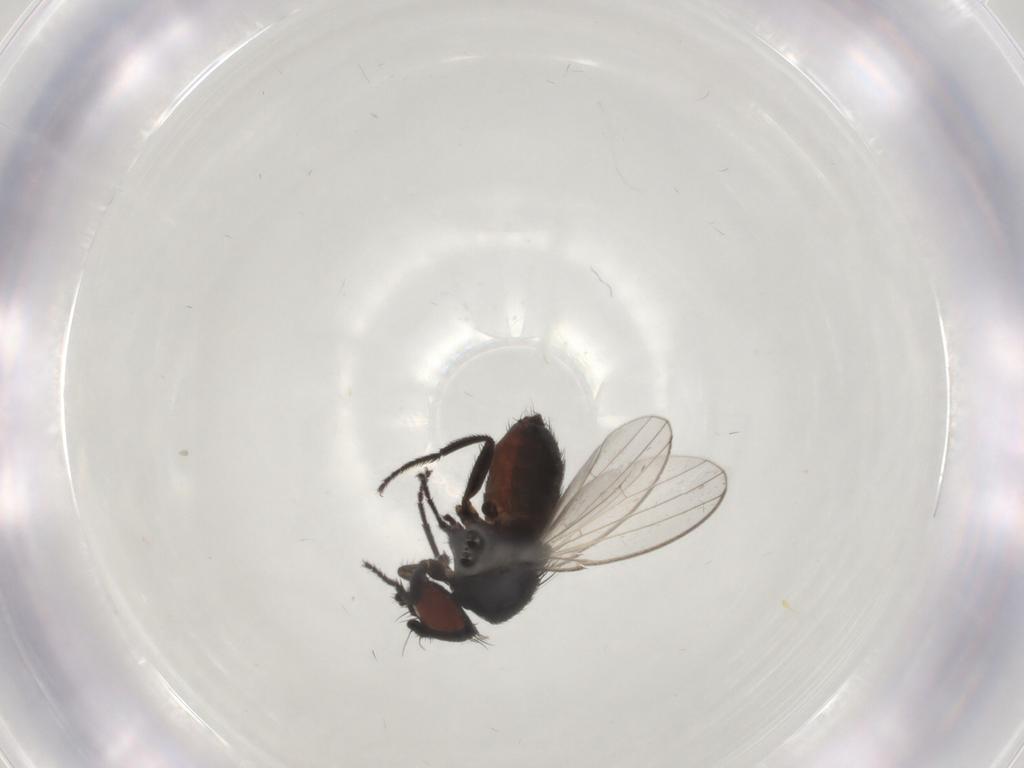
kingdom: Animalia
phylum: Arthropoda
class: Insecta
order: Diptera
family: Milichiidae
